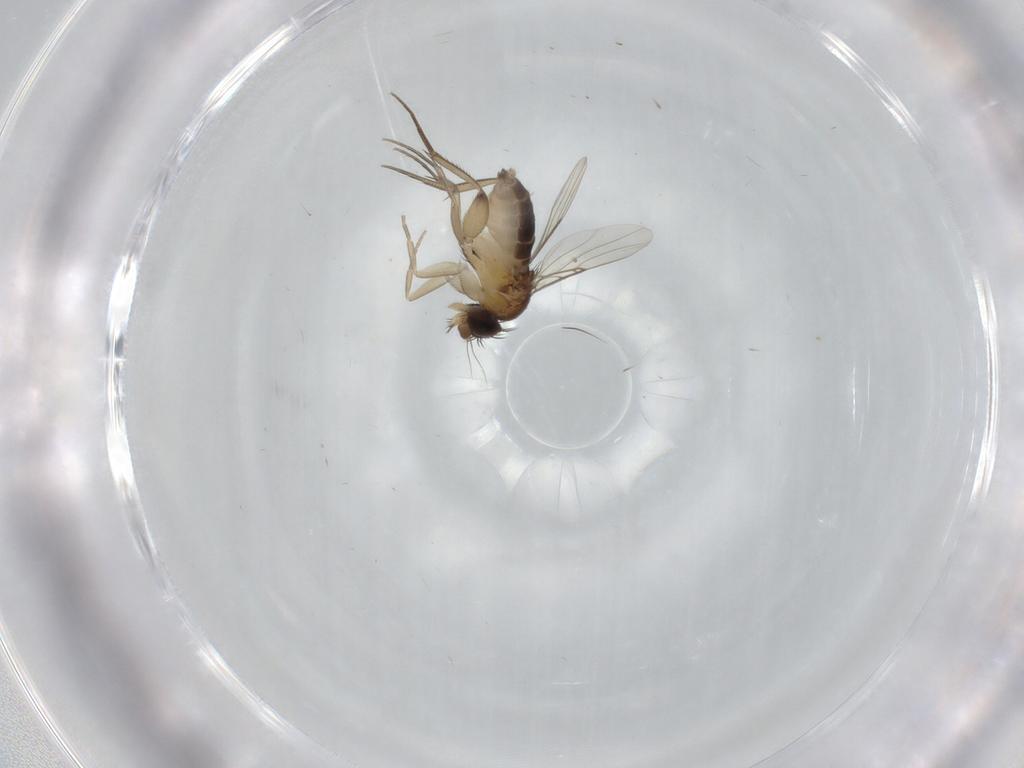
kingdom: Animalia
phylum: Arthropoda
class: Insecta
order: Diptera
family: Phoridae
